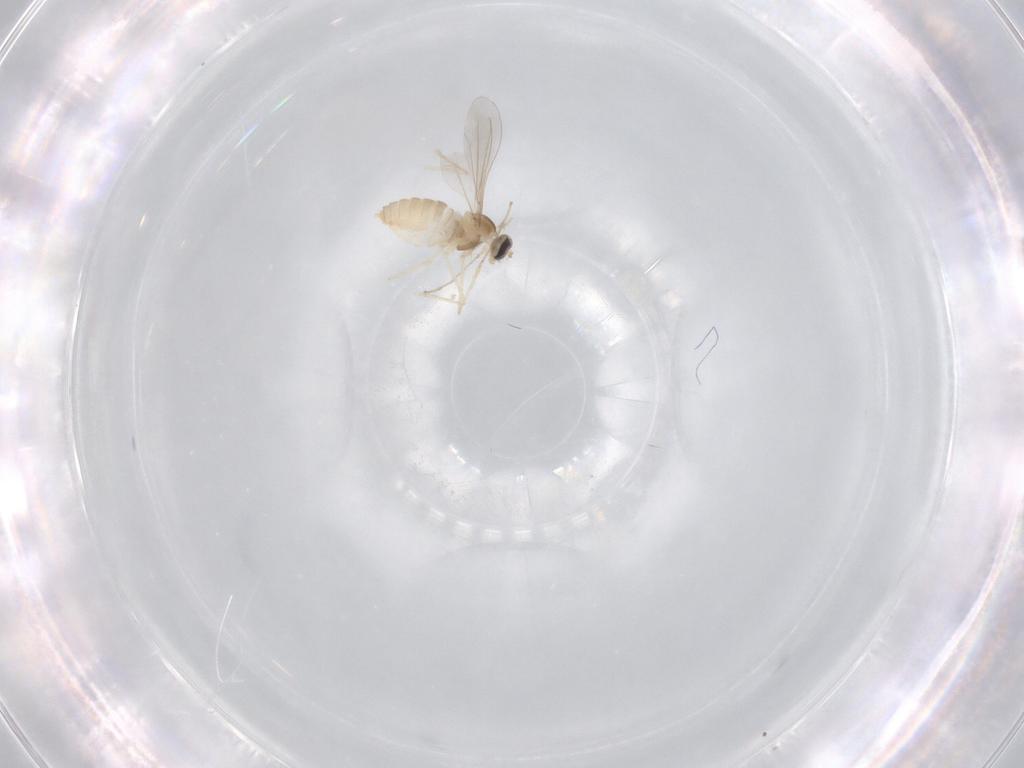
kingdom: Animalia
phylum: Arthropoda
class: Insecta
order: Diptera
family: Cecidomyiidae
